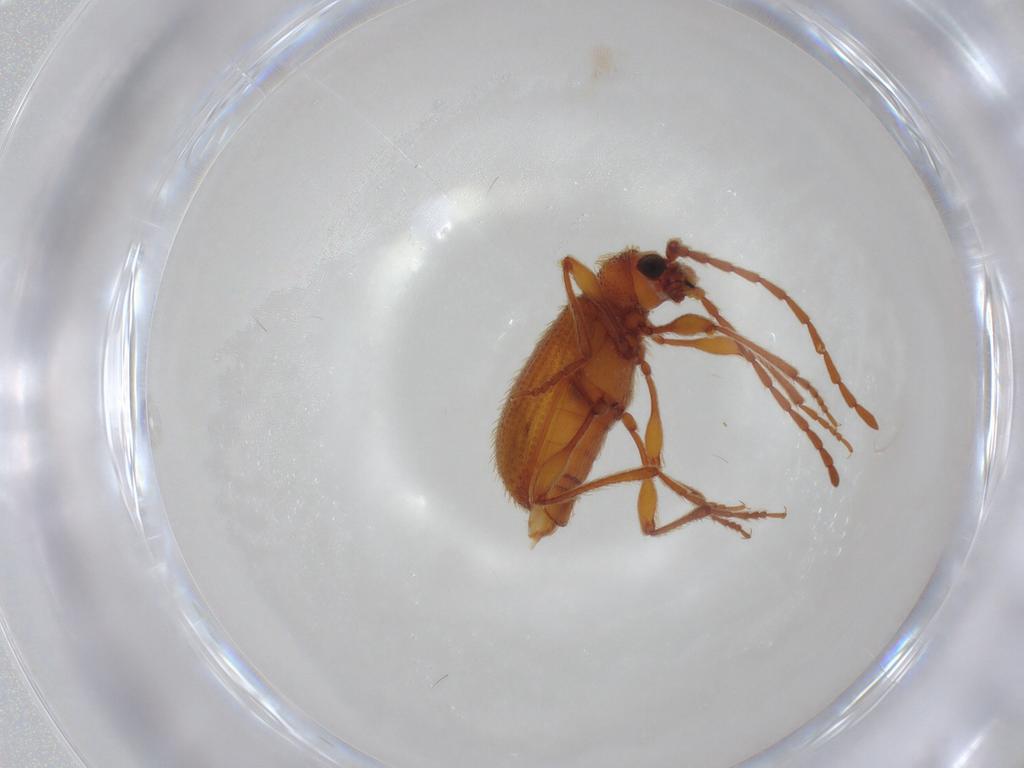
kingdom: Animalia
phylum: Arthropoda
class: Insecta
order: Coleoptera
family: Ptinidae
